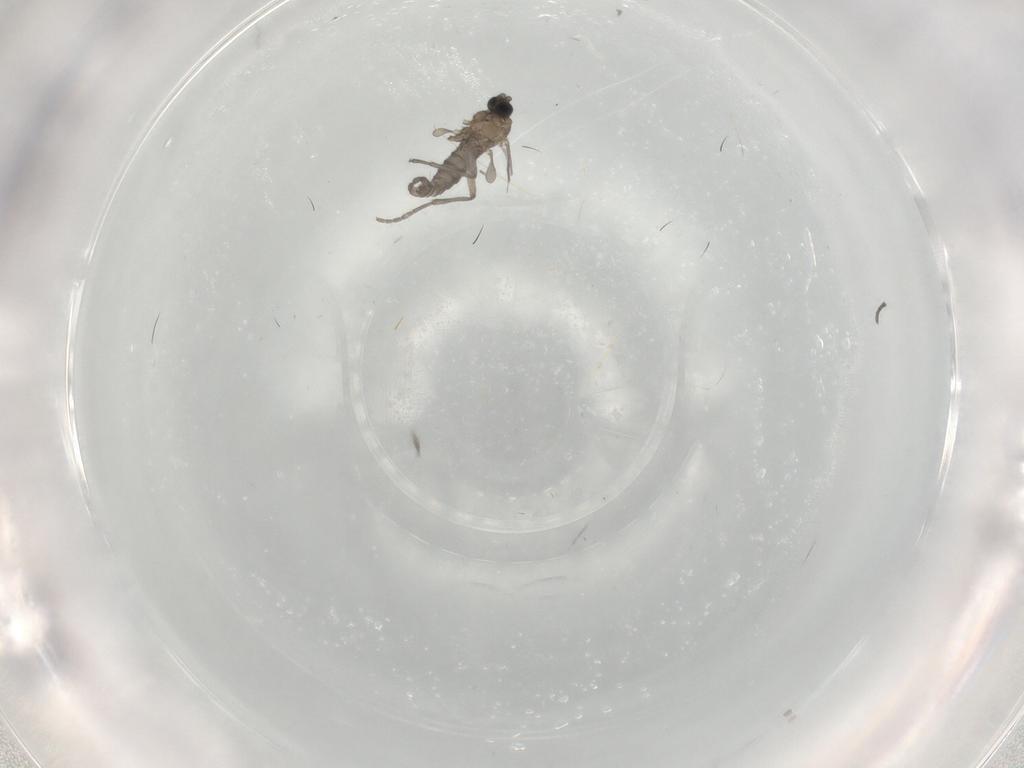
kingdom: Animalia
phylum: Arthropoda
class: Insecta
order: Diptera
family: Sciaridae
